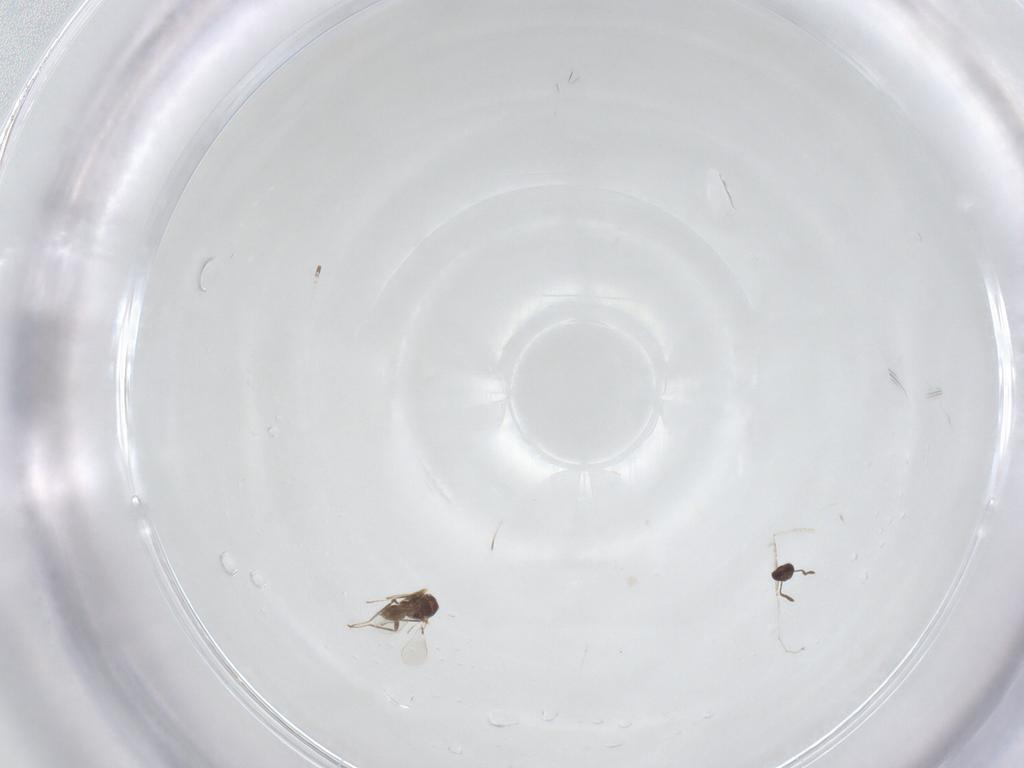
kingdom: Animalia
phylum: Arthropoda
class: Insecta
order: Hymenoptera
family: Mymaridae
